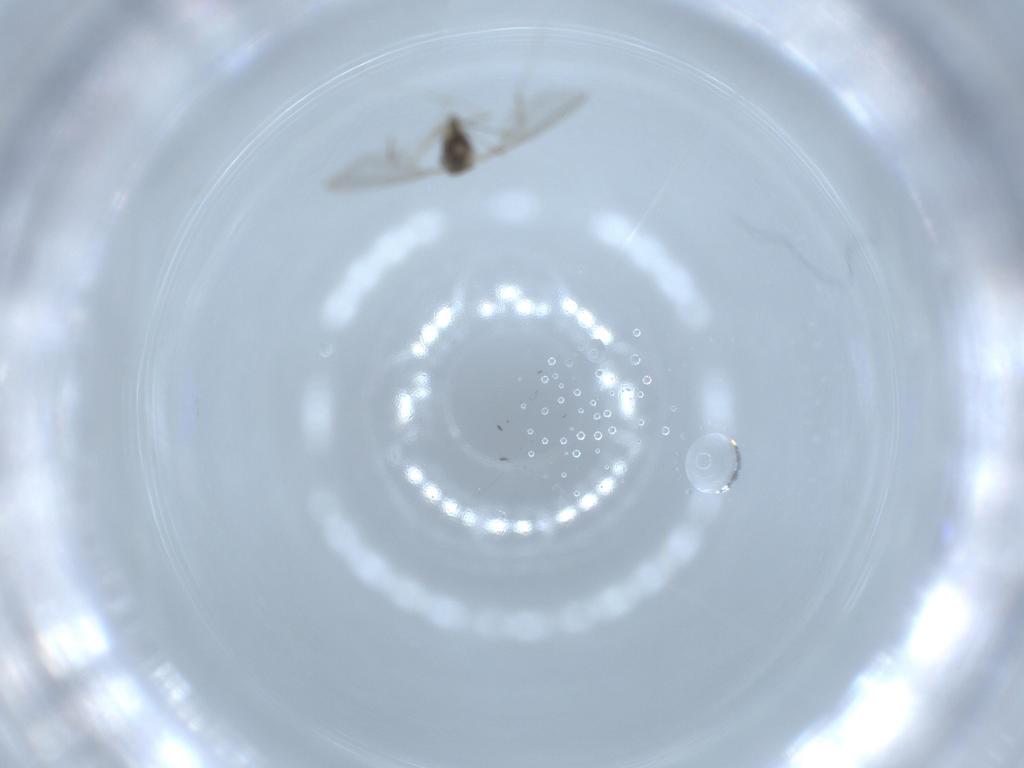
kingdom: Animalia
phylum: Arthropoda
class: Insecta
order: Diptera
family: Cecidomyiidae
